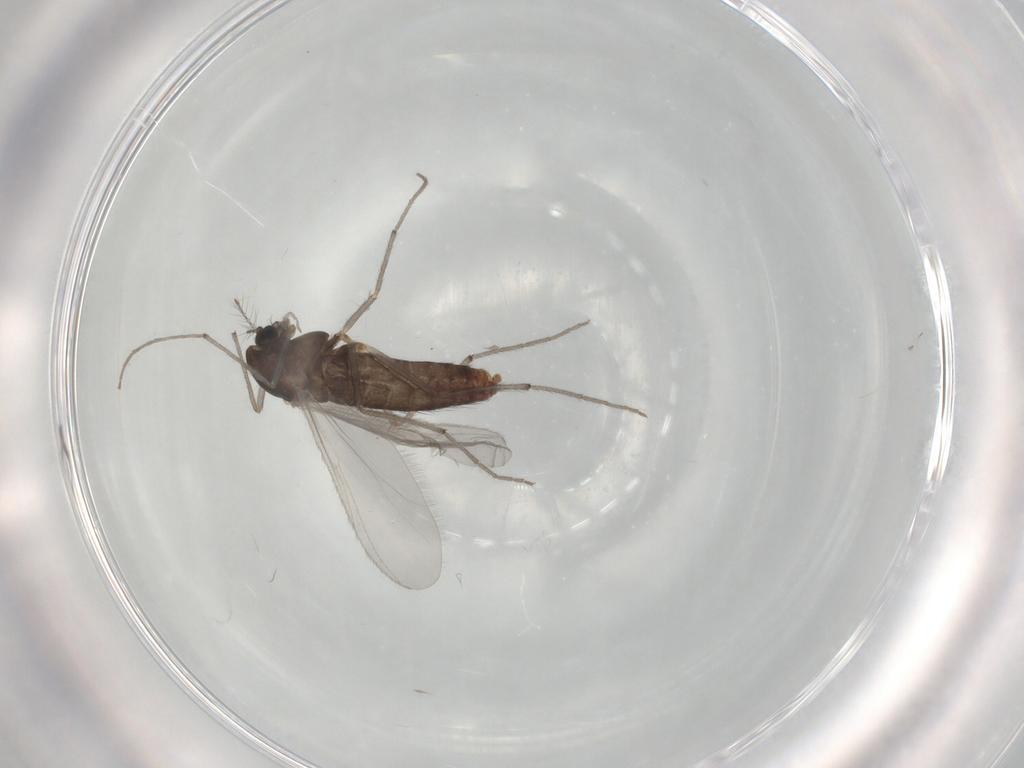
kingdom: Animalia
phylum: Arthropoda
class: Insecta
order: Diptera
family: Chironomidae
